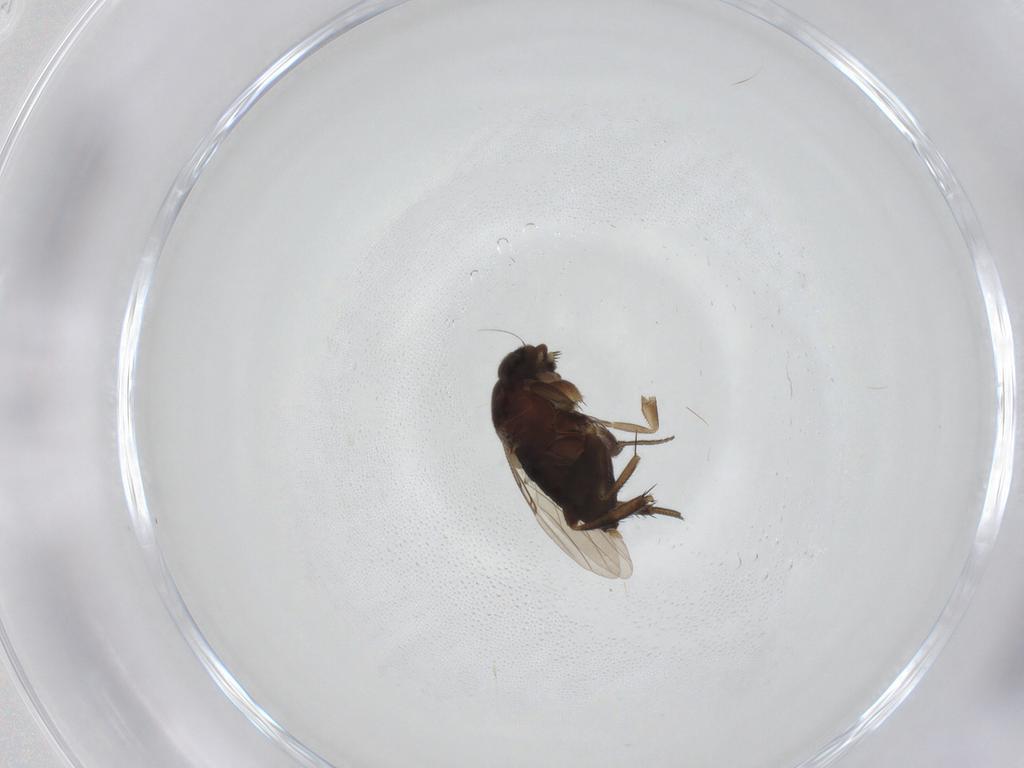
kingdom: Animalia
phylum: Arthropoda
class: Insecta
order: Diptera
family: Phoridae
